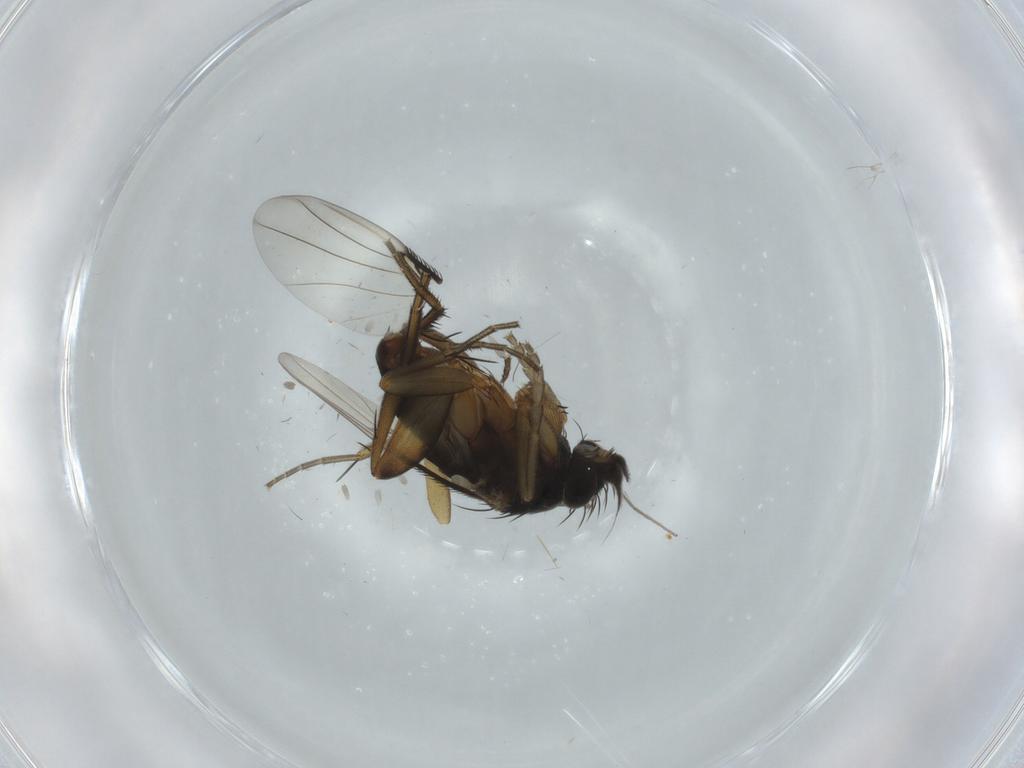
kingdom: Animalia
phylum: Arthropoda
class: Insecta
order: Diptera
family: Phoridae
